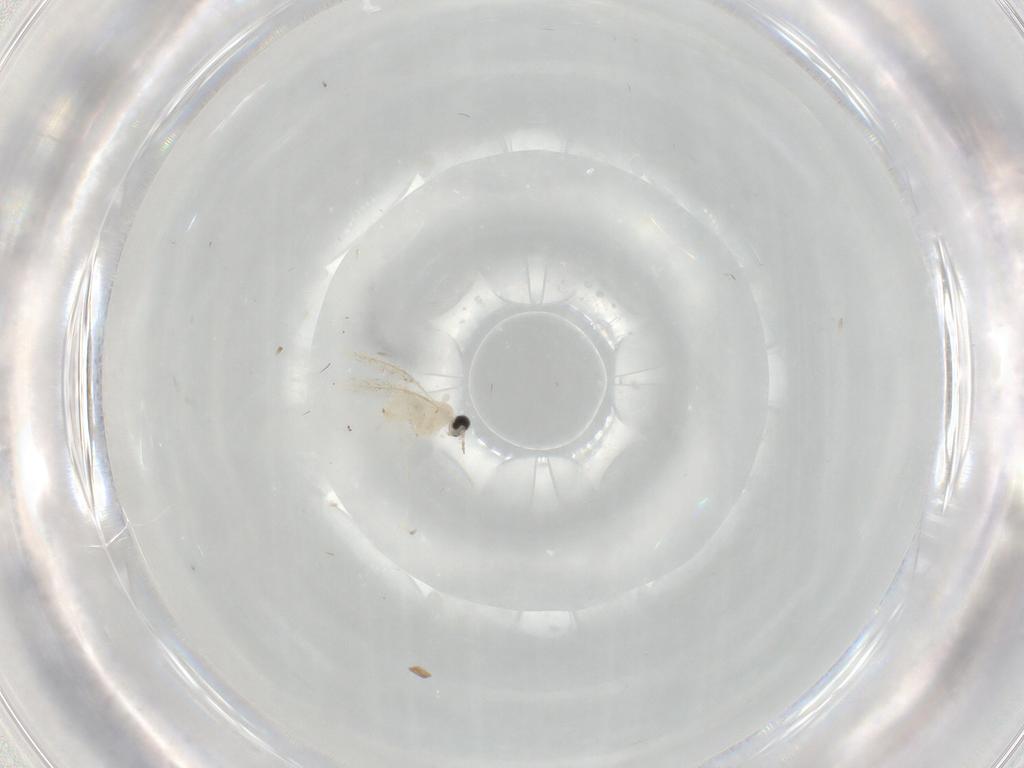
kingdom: Animalia
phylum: Arthropoda
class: Insecta
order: Diptera
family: Cecidomyiidae
